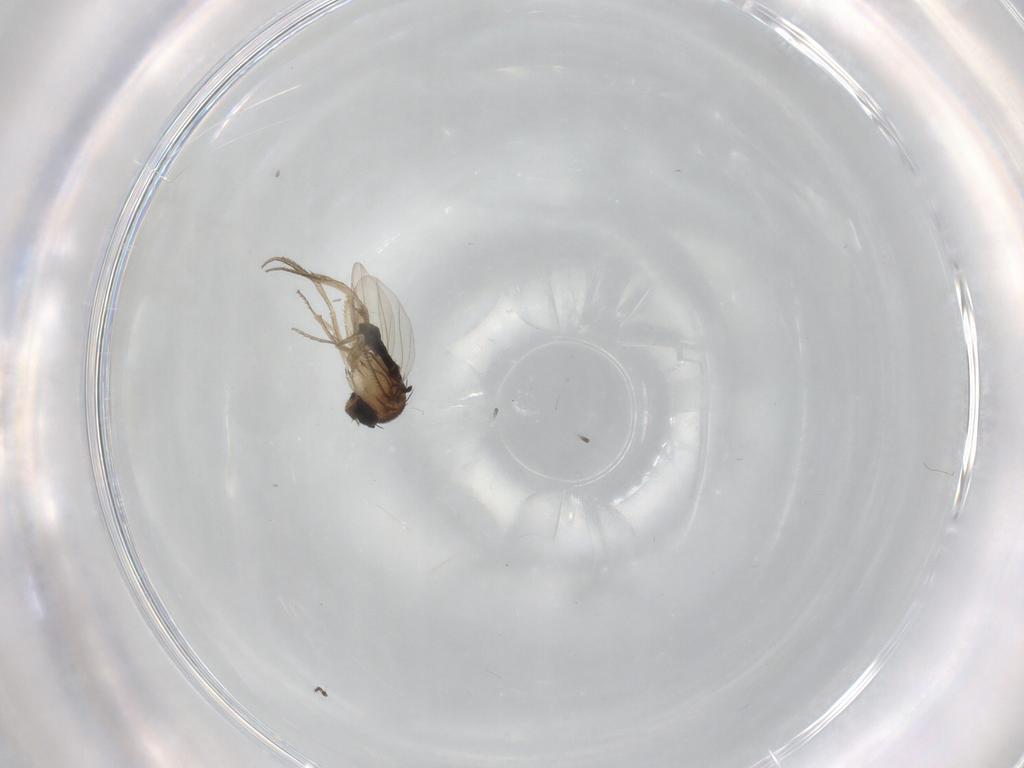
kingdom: Animalia
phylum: Arthropoda
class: Insecta
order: Diptera
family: Limoniidae
